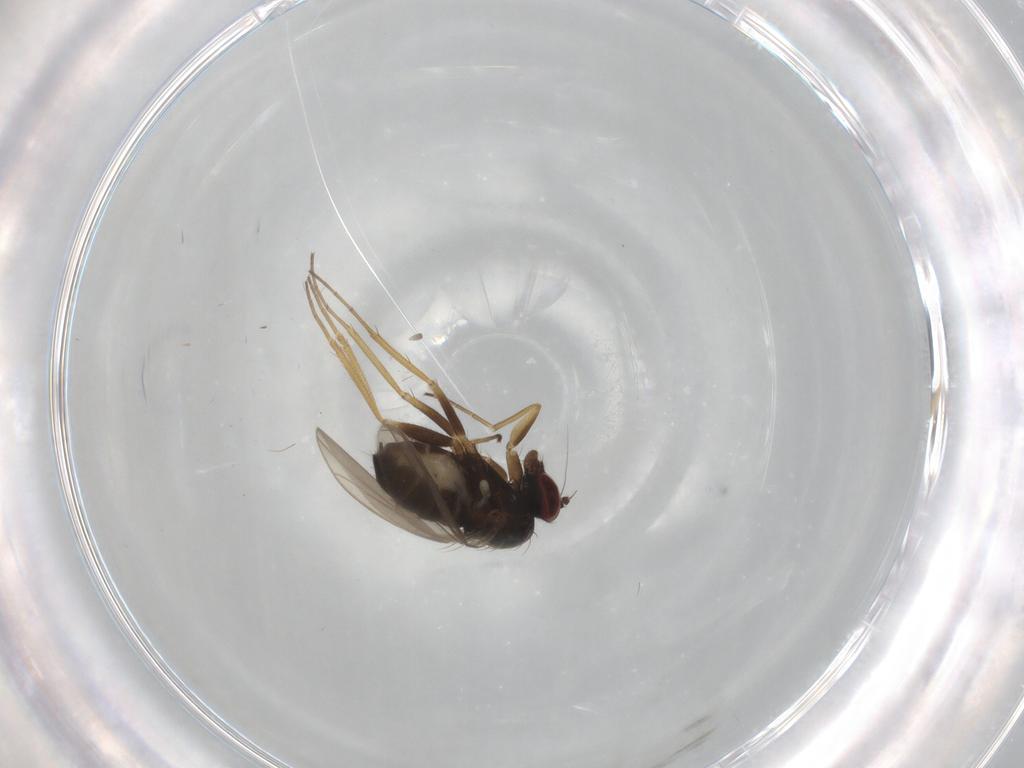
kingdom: Animalia
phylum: Arthropoda
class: Insecta
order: Diptera
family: Dolichopodidae
